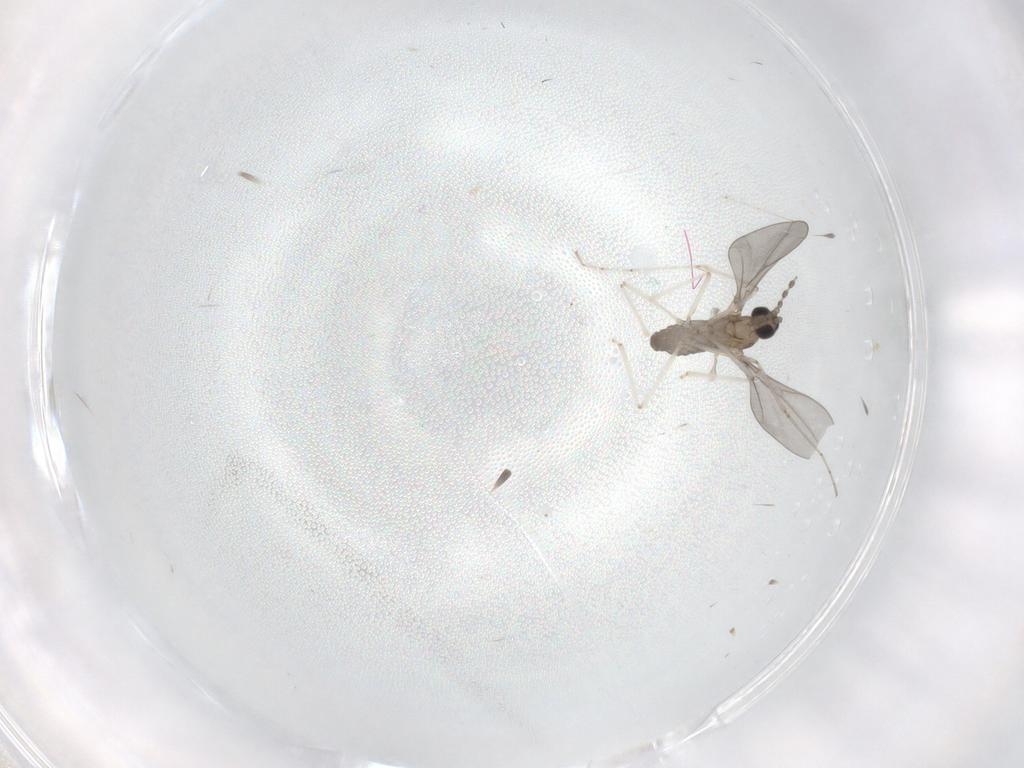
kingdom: Animalia
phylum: Arthropoda
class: Insecta
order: Diptera
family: Cecidomyiidae
